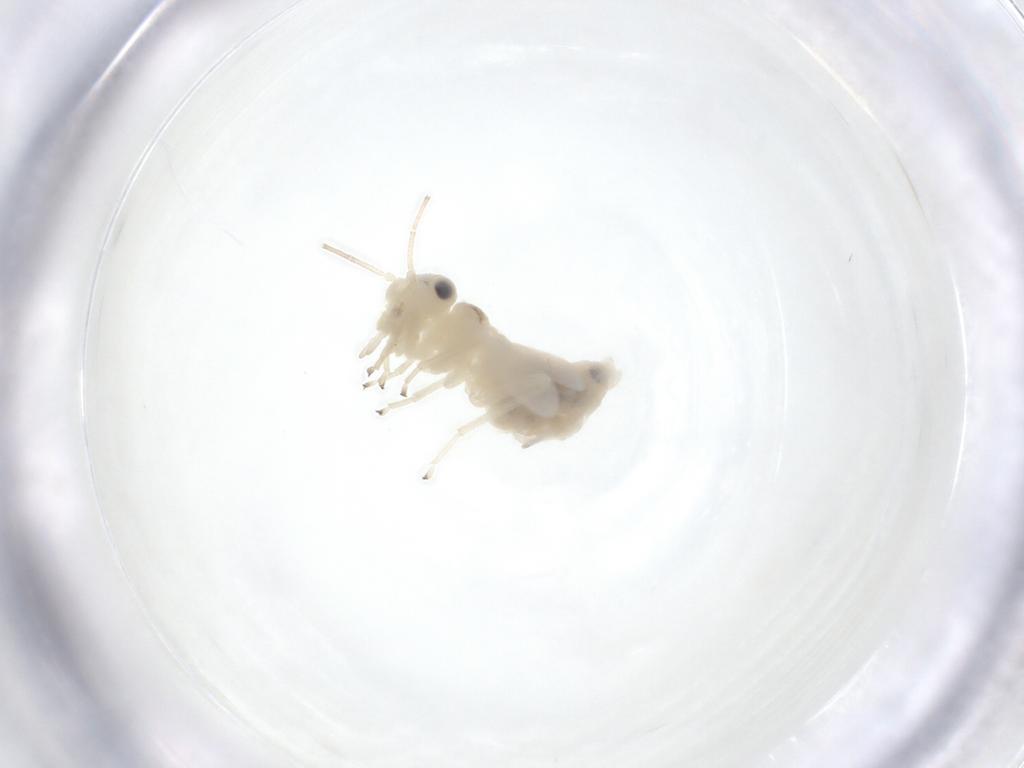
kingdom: Animalia
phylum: Arthropoda
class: Insecta
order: Psocodea
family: Caeciliusidae
